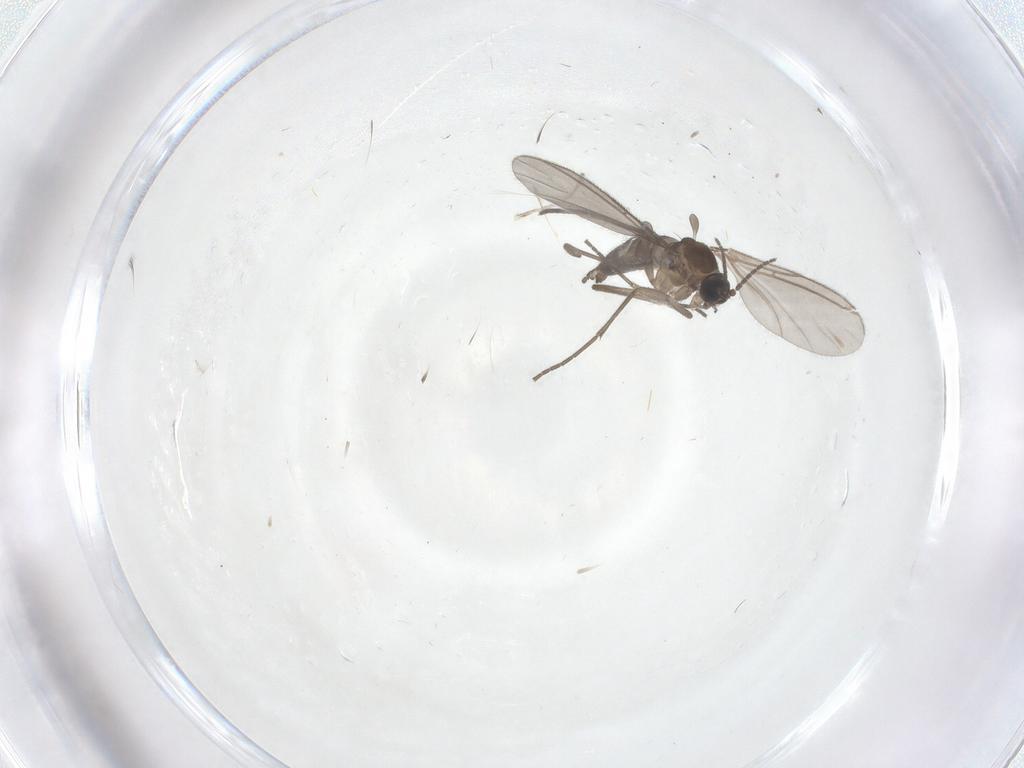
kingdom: Animalia
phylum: Arthropoda
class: Insecta
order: Diptera
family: Sciaridae
